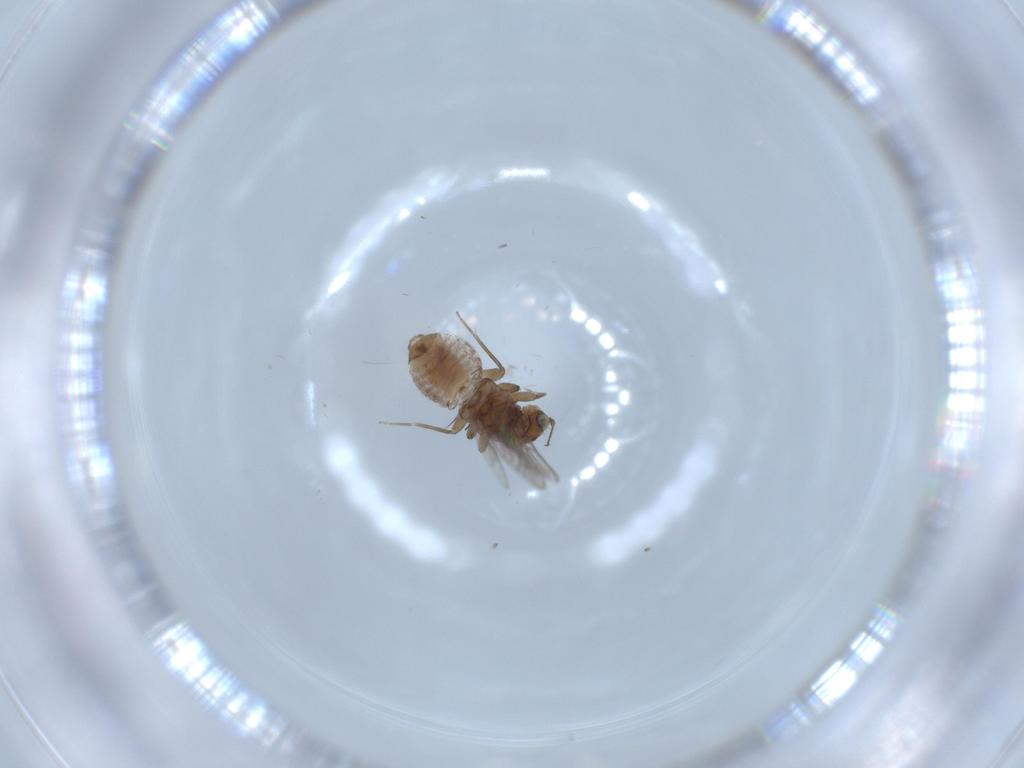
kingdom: Animalia
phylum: Arthropoda
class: Insecta
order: Psocodea
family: Psoquillidae
